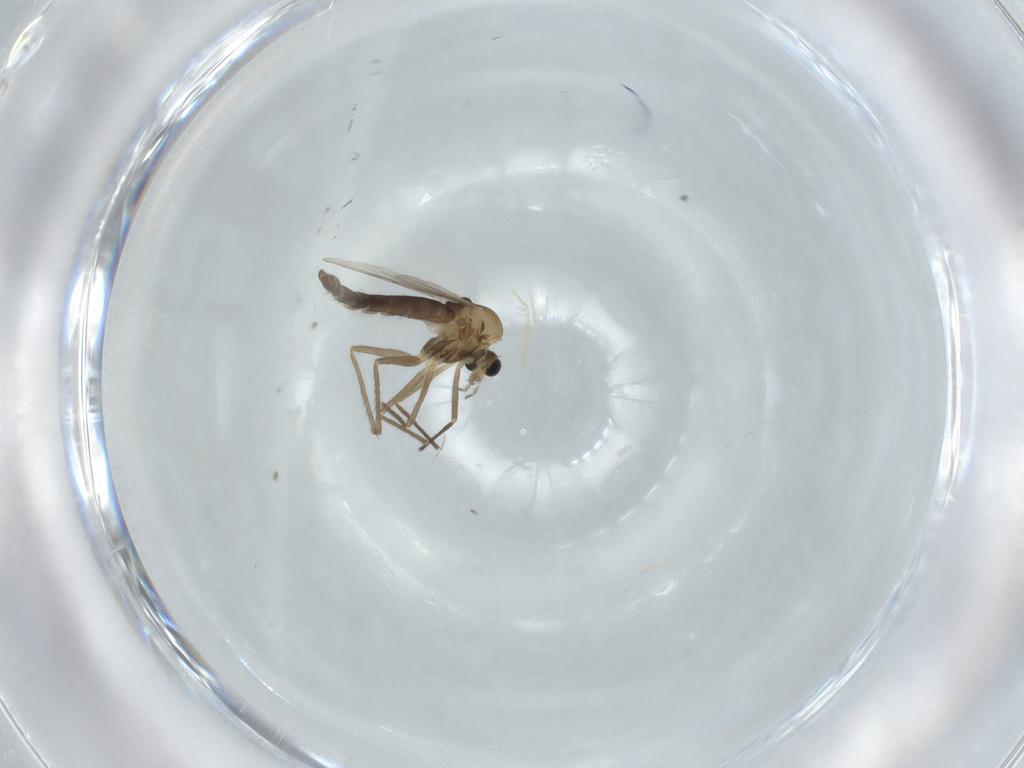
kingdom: Animalia
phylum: Arthropoda
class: Insecta
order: Diptera
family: Chironomidae
